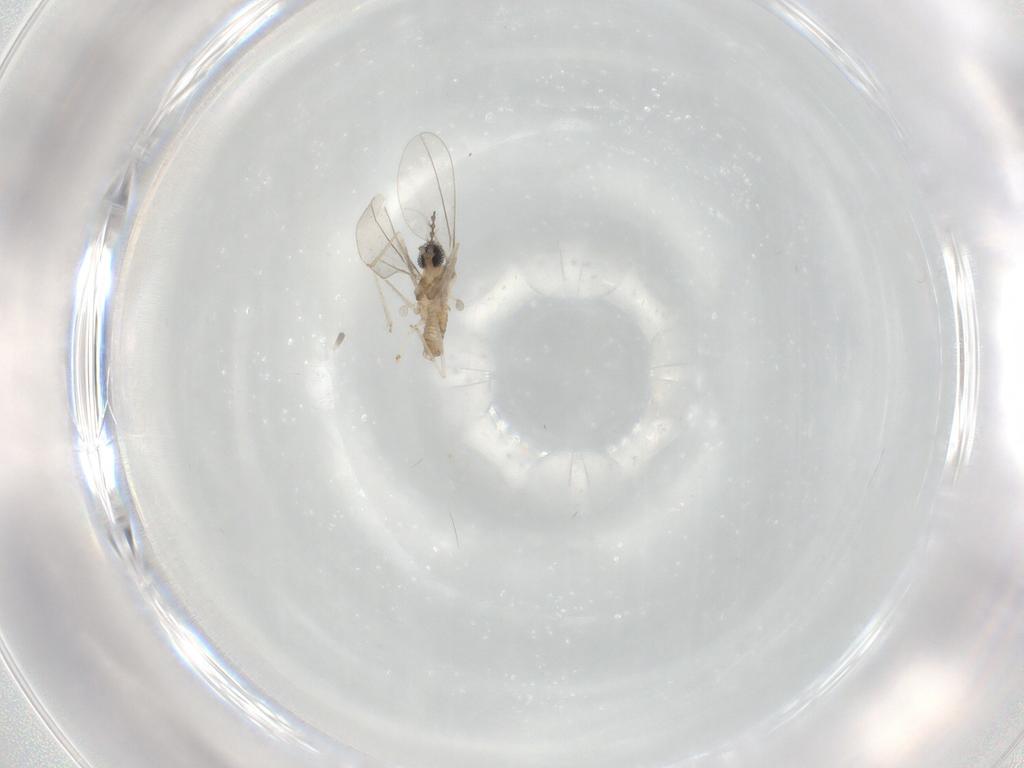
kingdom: Animalia
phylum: Arthropoda
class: Insecta
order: Diptera
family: Cecidomyiidae
